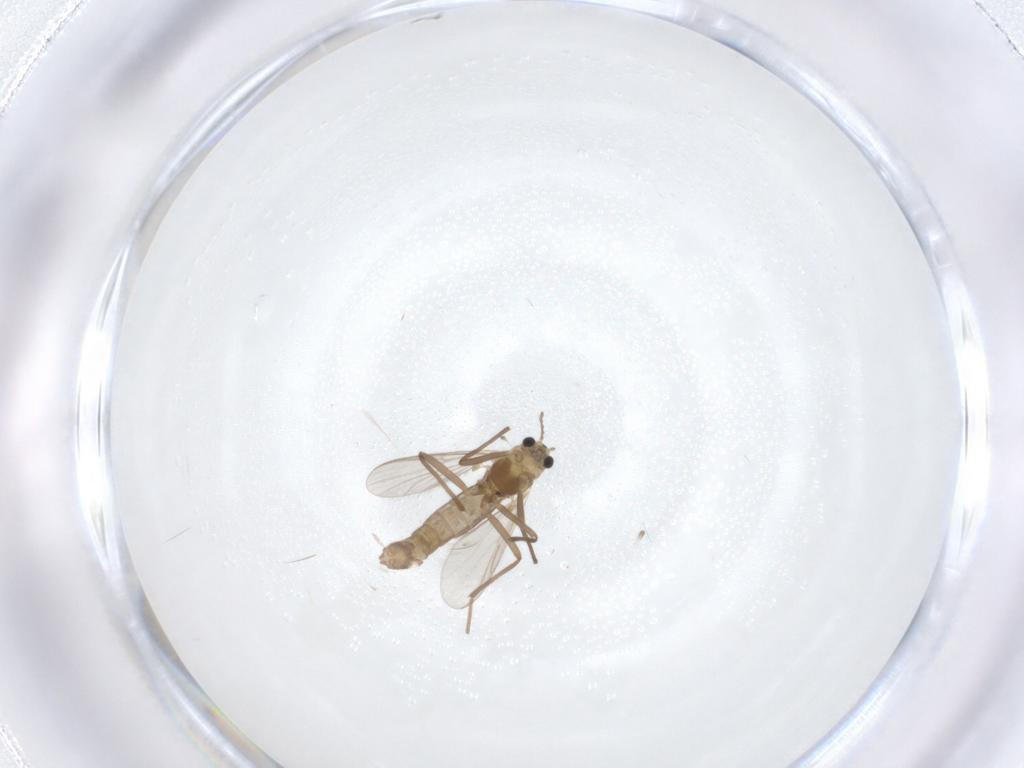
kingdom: Animalia
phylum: Arthropoda
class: Insecta
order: Diptera
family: Chironomidae
